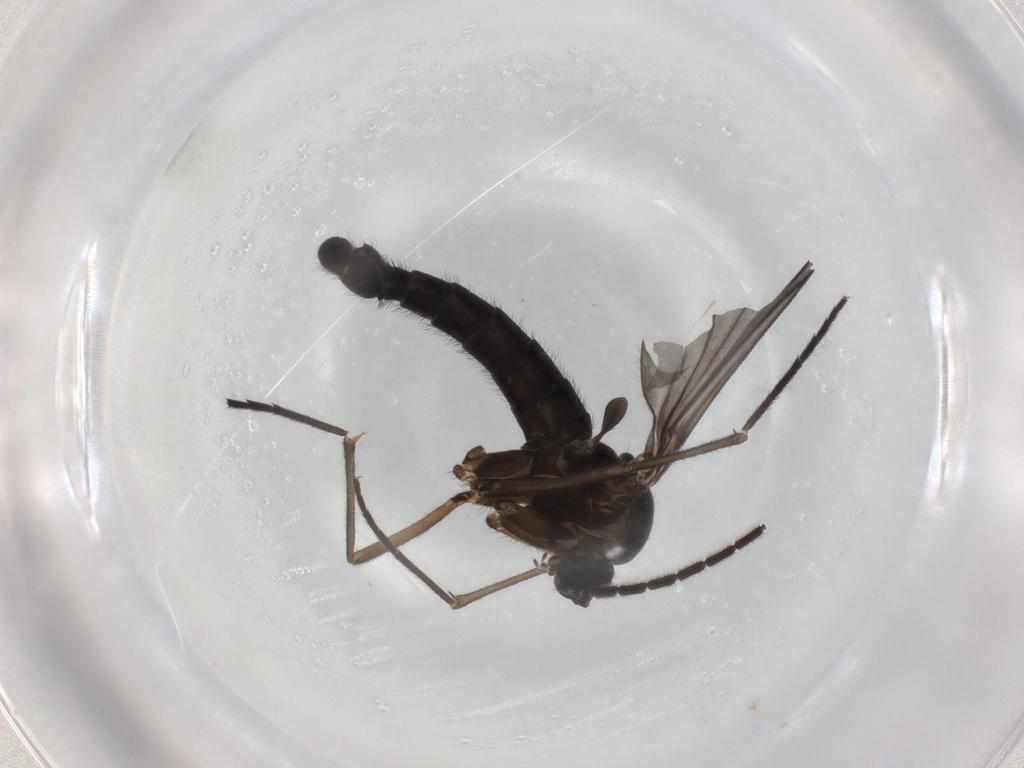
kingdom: Animalia
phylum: Arthropoda
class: Insecta
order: Diptera
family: Sciaridae
